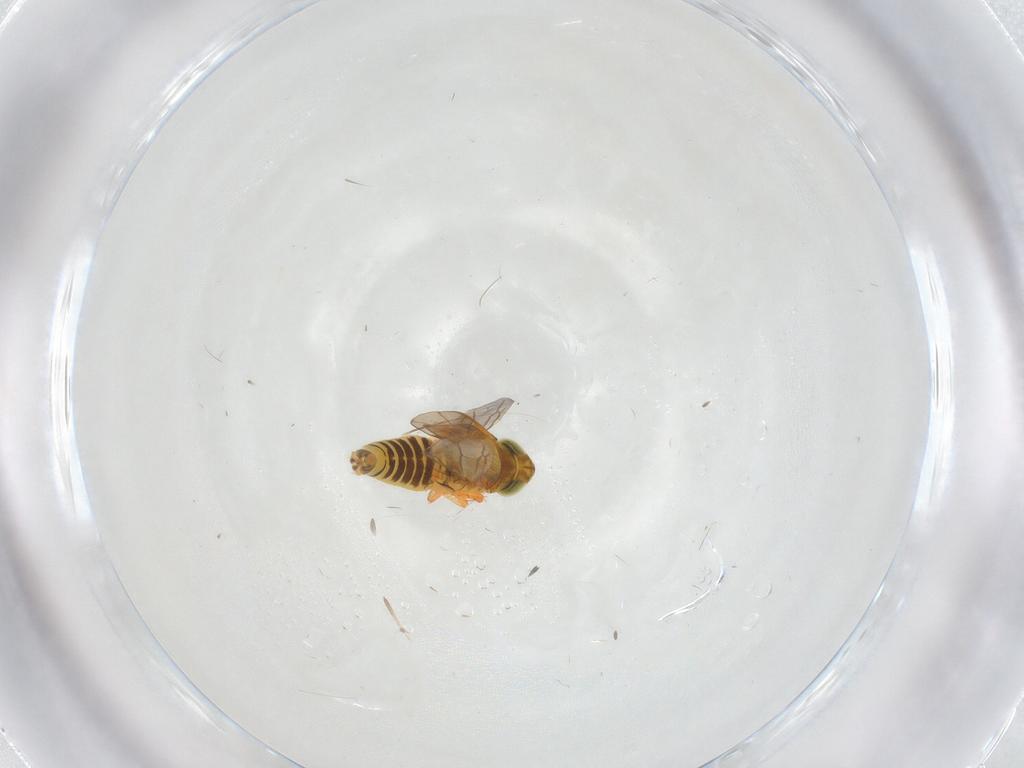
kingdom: Animalia
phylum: Arthropoda
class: Insecta
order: Hemiptera
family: Cicadellidae
